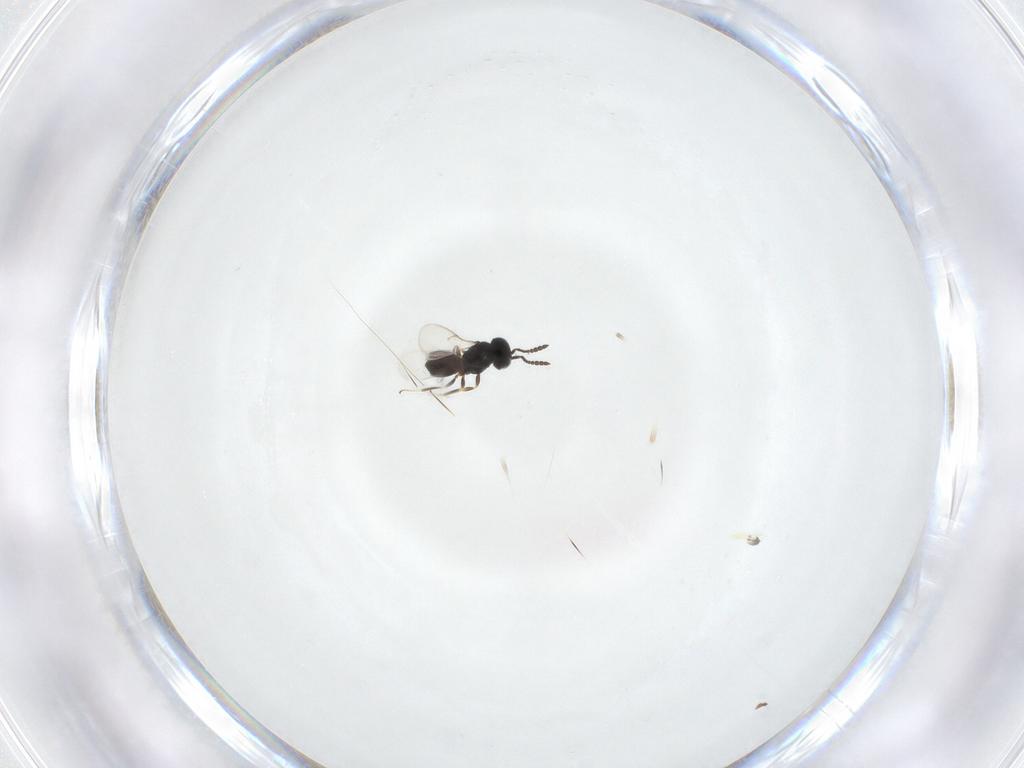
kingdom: Animalia
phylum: Arthropoda
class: Insecta
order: Hymenoptera
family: Scelionidae
